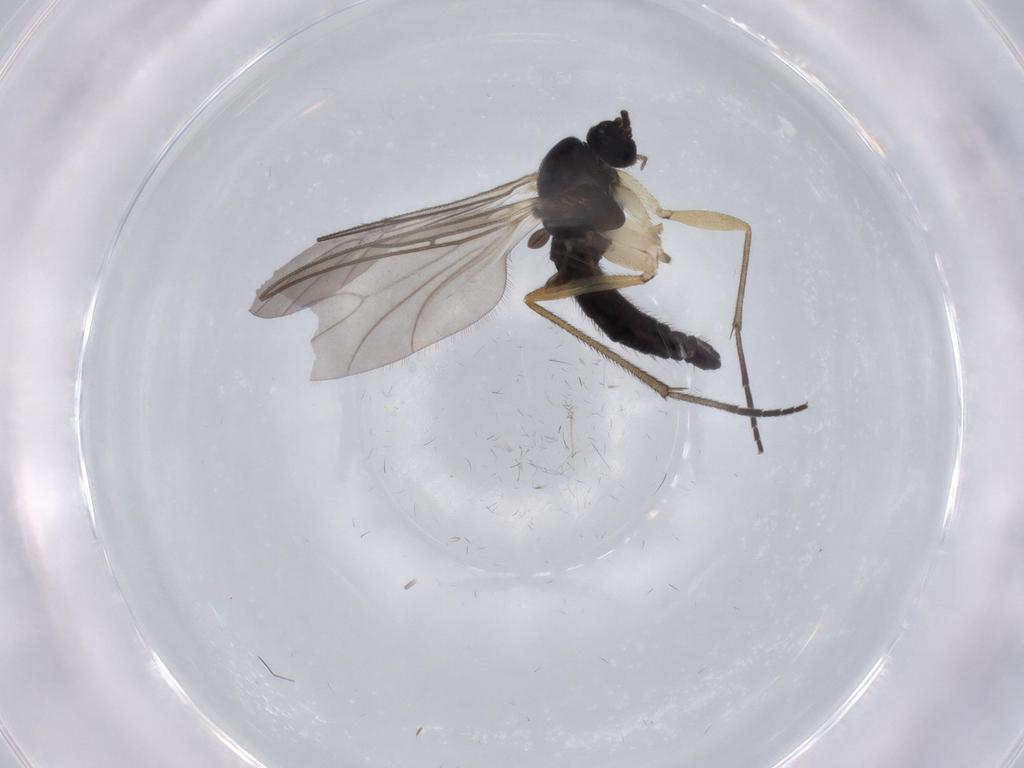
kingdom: Animalia
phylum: Arthropoda
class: Insecta
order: Diptera
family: Sciaridae
